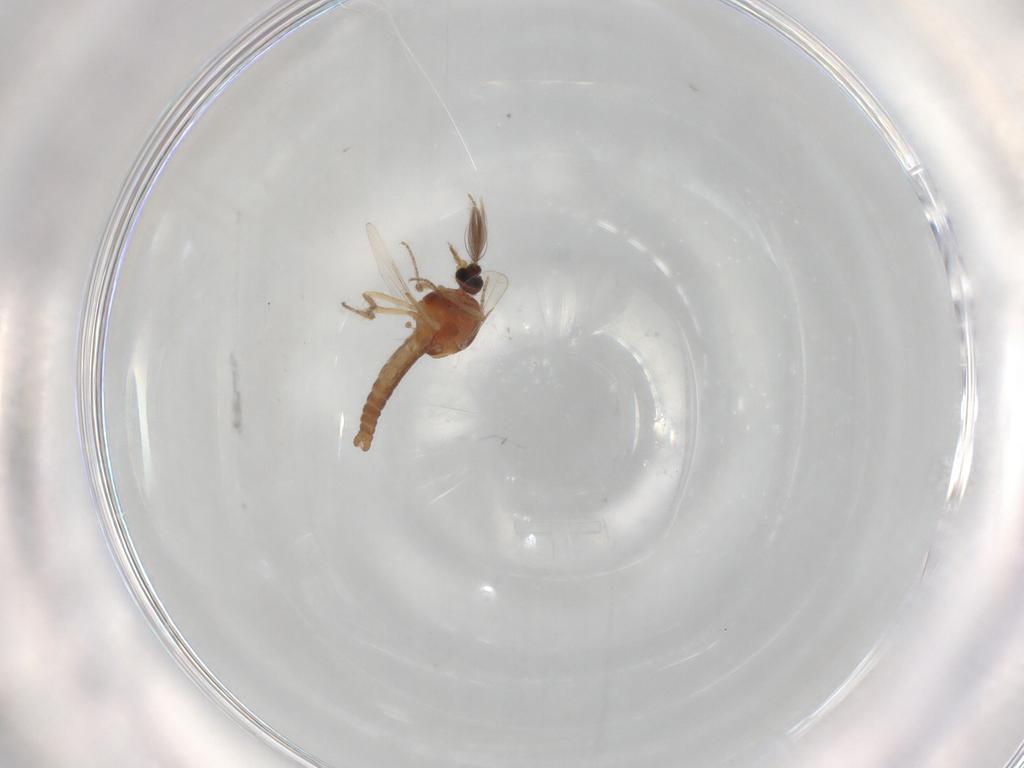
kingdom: Animalia
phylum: Arthropoda
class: Insecta
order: Diptera
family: Ceratopogonidae
